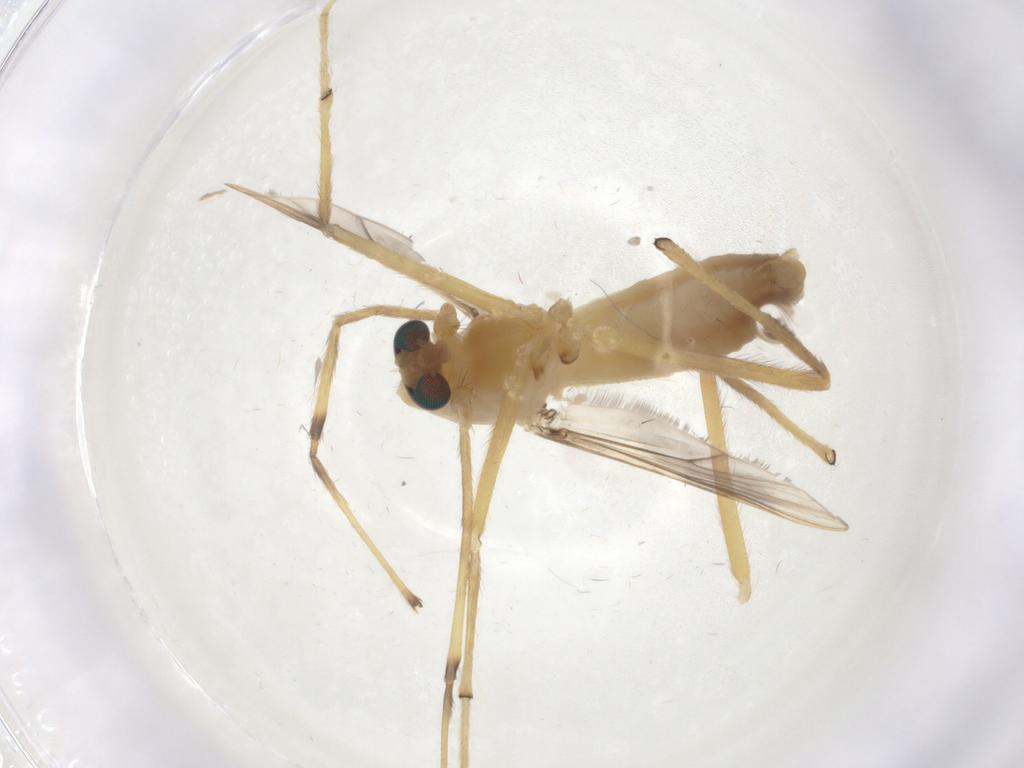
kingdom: Animalia
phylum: Arthropoda
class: Insecta
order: Diptera
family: Chironomidae
